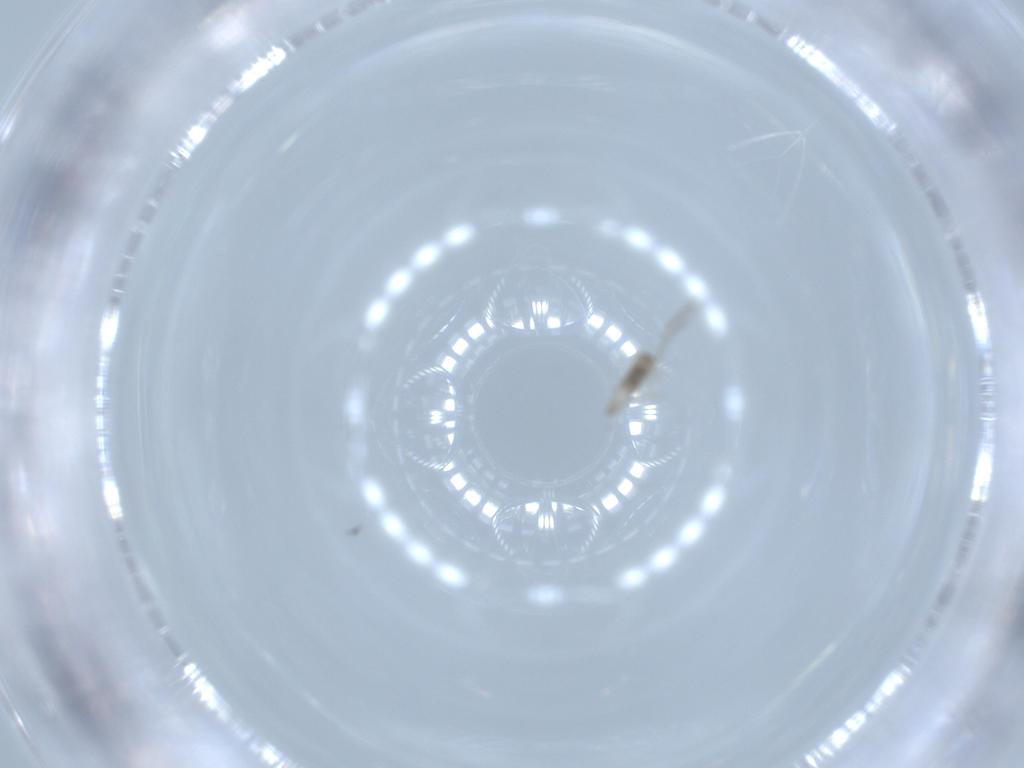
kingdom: Animalia
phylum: Arthropoda
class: Insecta
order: Diptera
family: Cecidomyiidae
